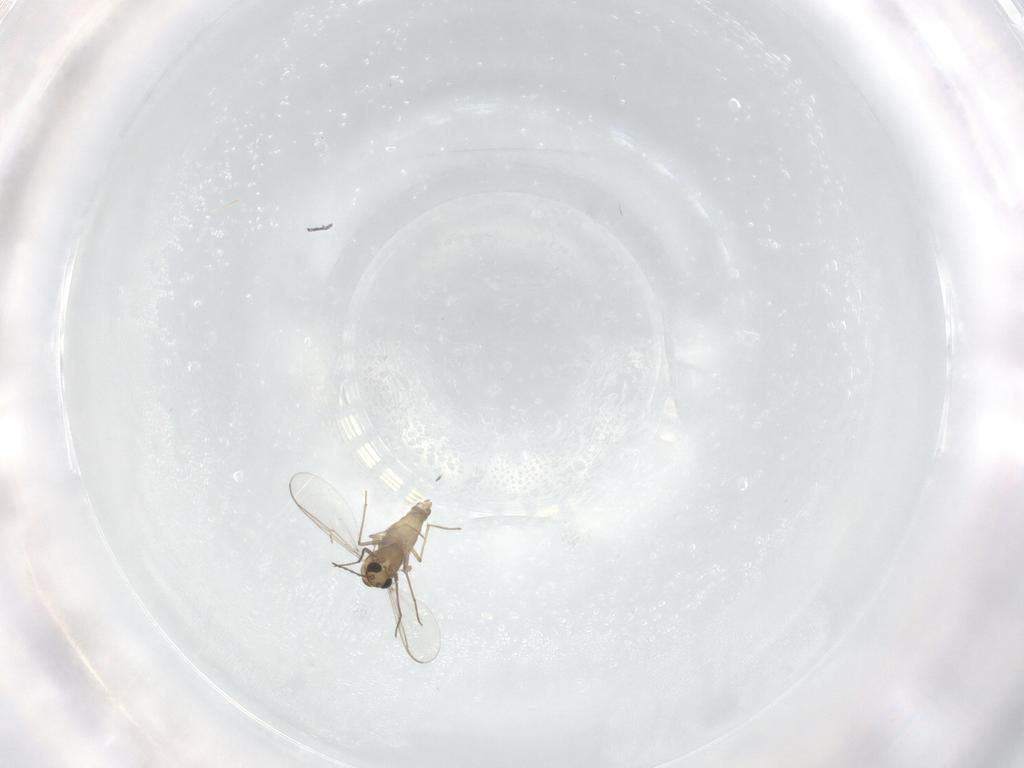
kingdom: Animalia
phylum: Arthropoda
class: Insecta
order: Diptera
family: Chironomidae
